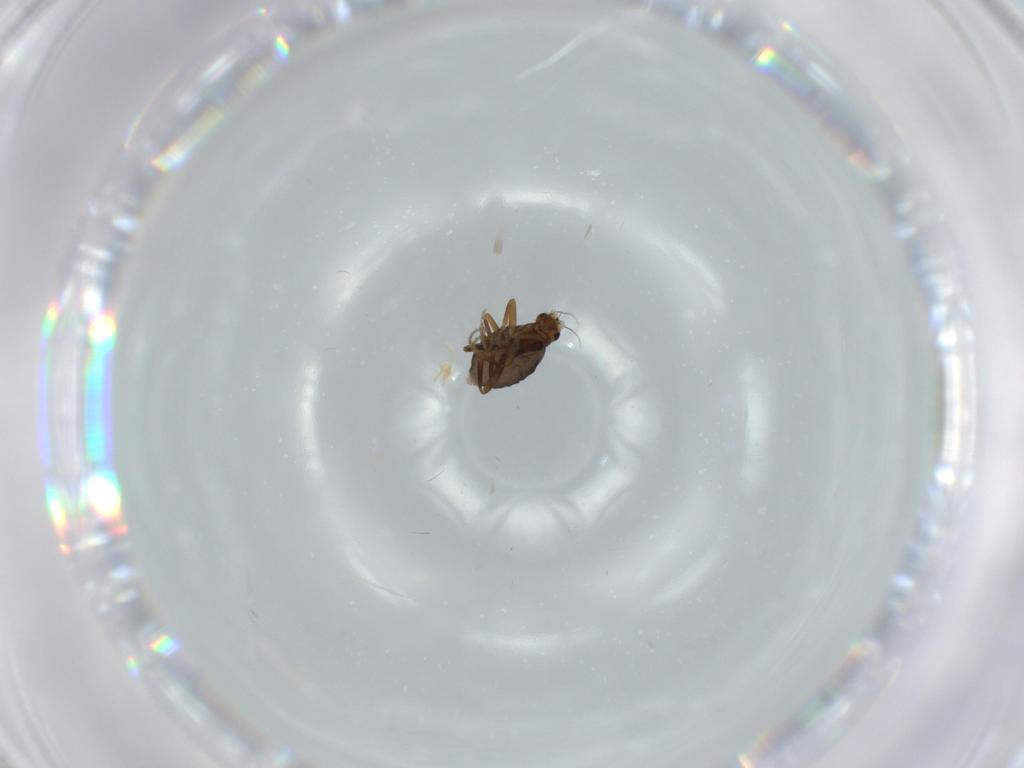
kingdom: Animalia
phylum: Arthropoda
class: Insecta
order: Diptera
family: Phoridae
